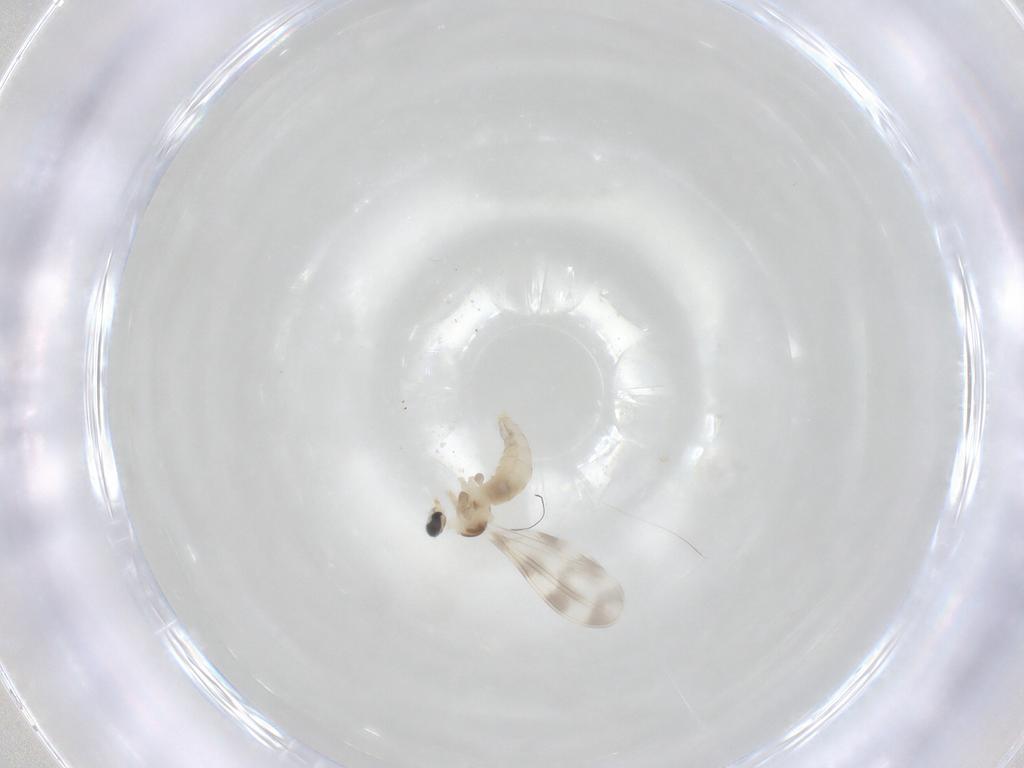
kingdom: Animalia
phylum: Arthropoda
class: Insecta
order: Diptera
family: Cecidomyiidae
